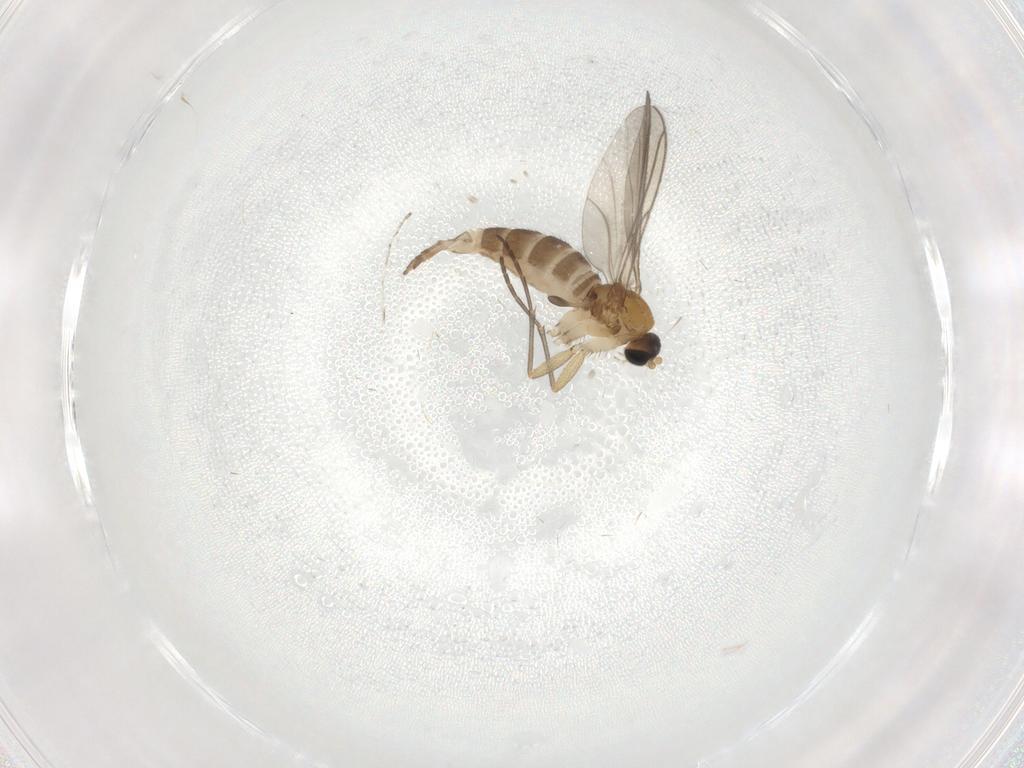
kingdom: Animalia
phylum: Arthropoda
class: Insecta
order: Diptera
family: Sciaridae
